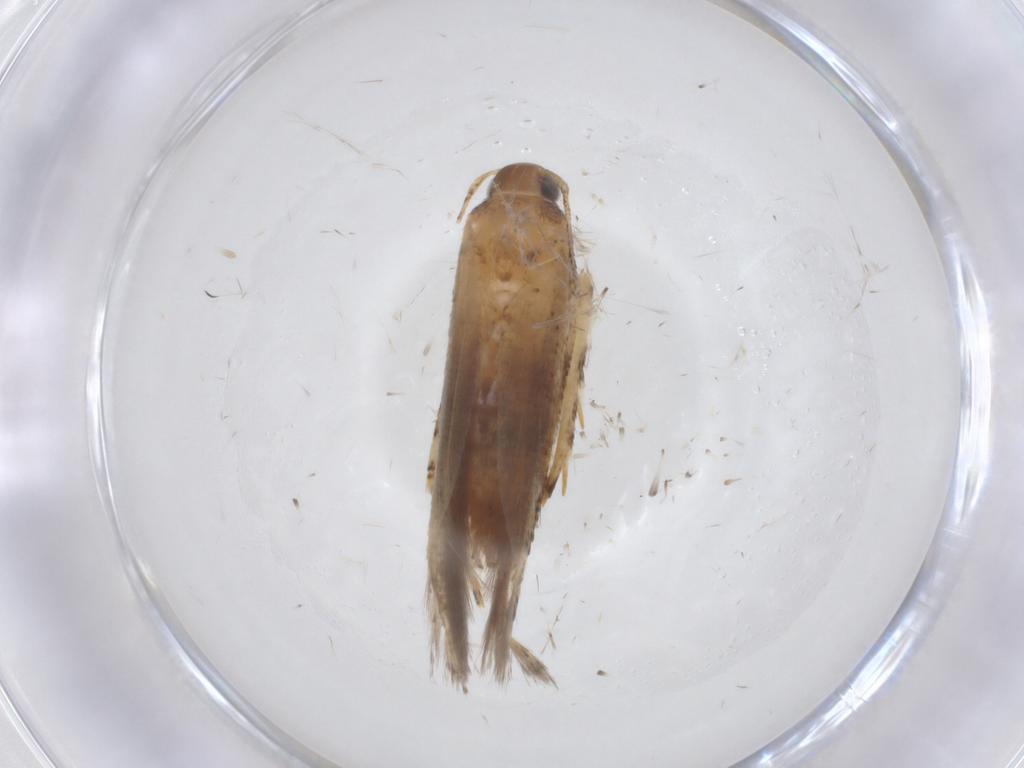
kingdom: Animalia
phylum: Arthropoda
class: Insecta
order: Lepidoptera
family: Gelechiidae
